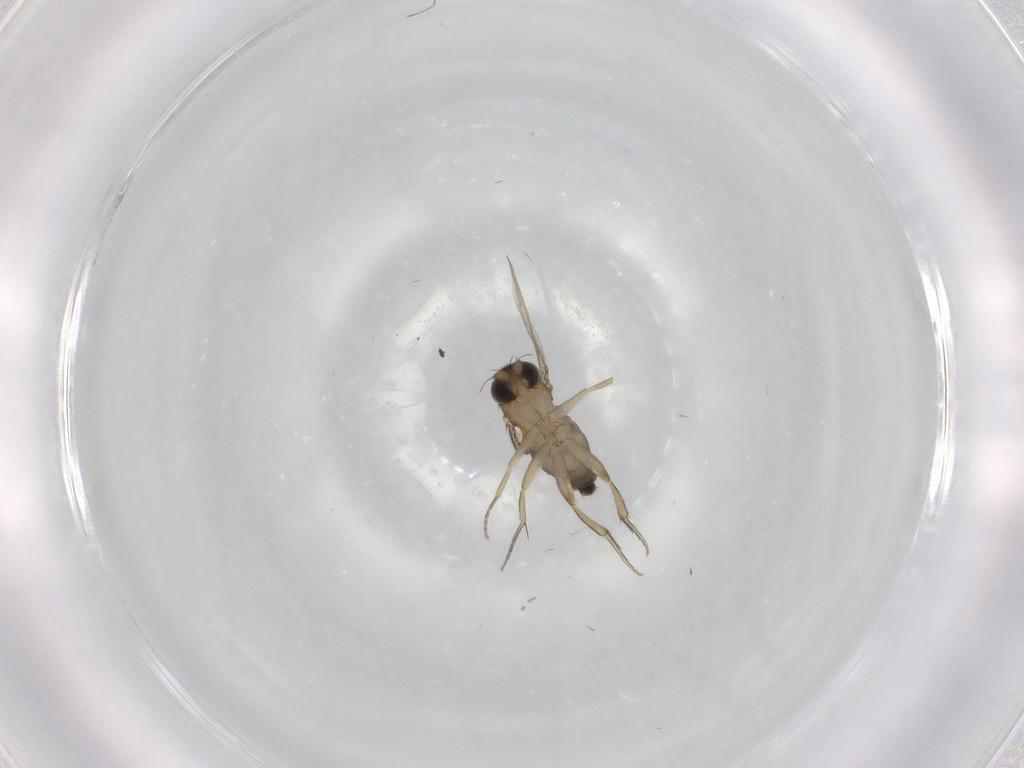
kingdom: Animalia
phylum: Arthropoda
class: Insecta
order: Diptera
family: Phoridae
